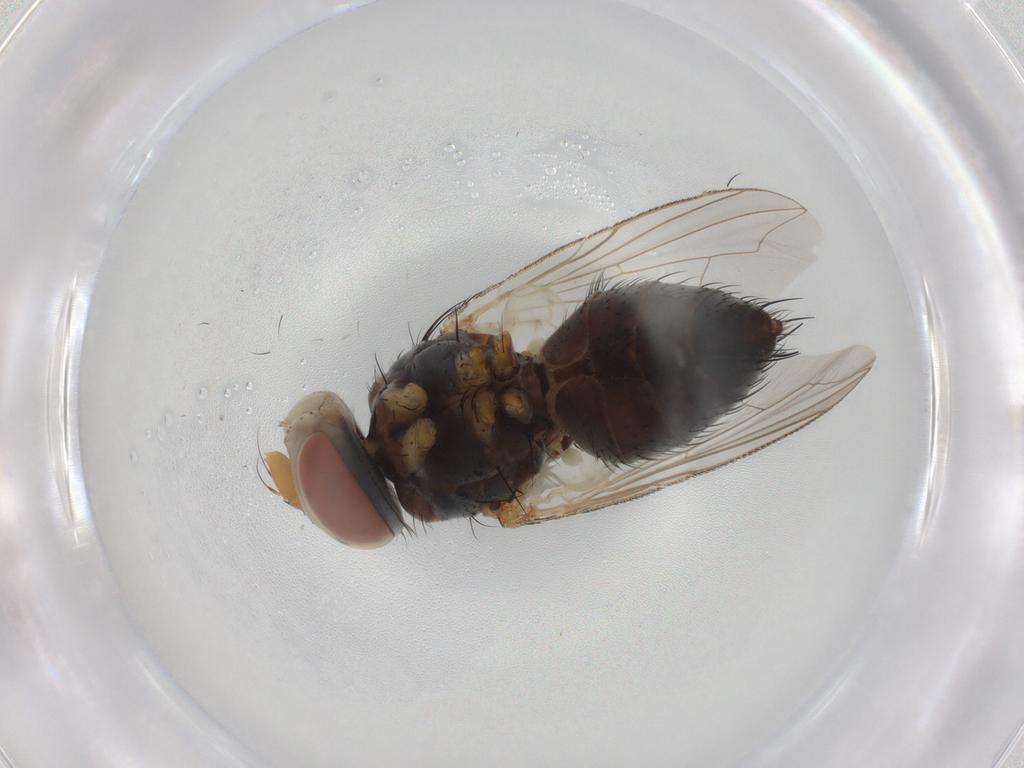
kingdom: Animalia
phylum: Arthropoda
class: Insecta
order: Diptera
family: Tachinidae
